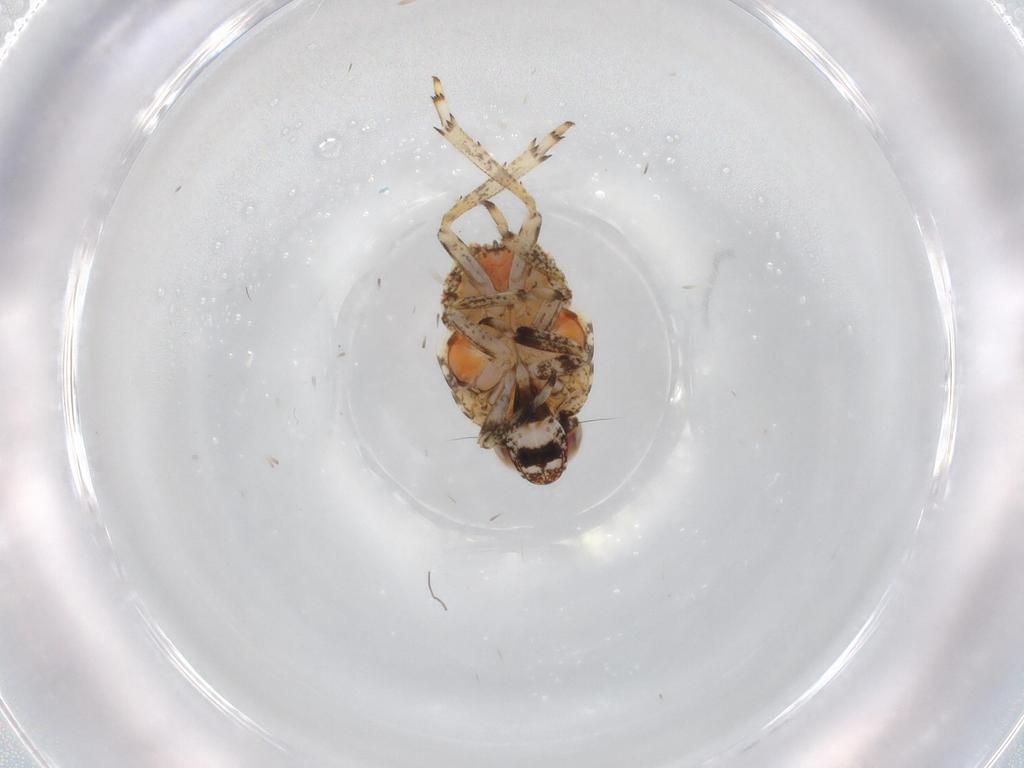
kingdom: Animalia
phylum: Arthropoda
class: Insecta
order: Hemiptera
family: Issidae
